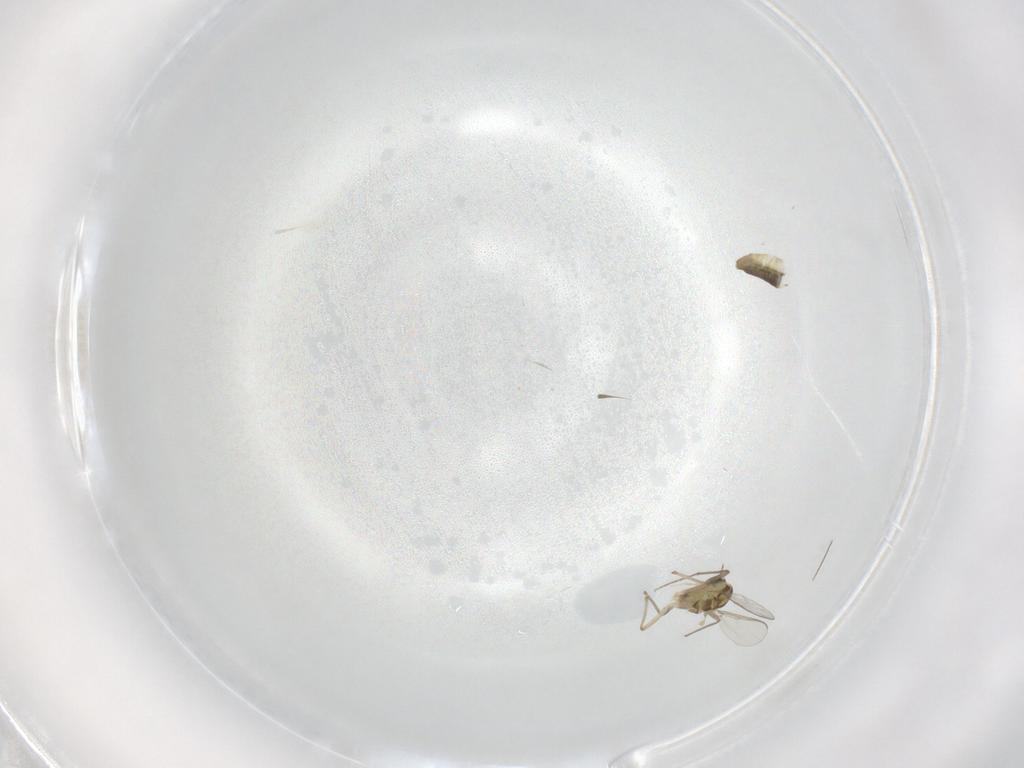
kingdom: Animalia
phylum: Arthropoda
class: Insecta
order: Diptera
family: Chironomidae
